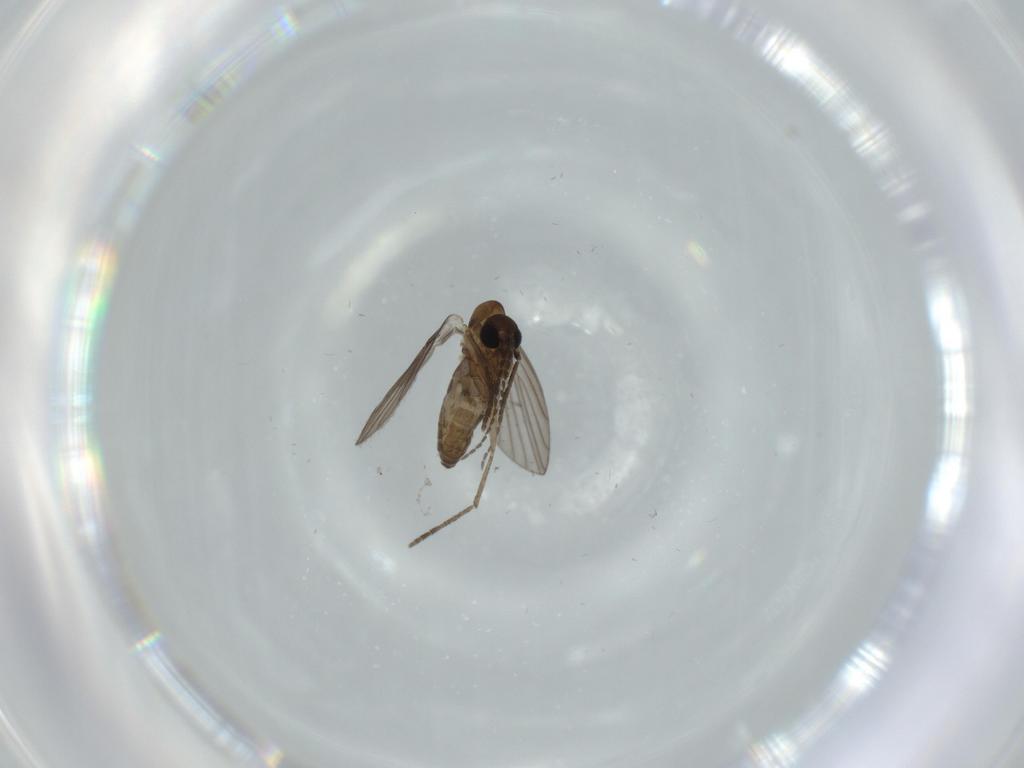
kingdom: Animalia
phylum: Arthropoda
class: Insecta
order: Diptera
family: Psychodidae
